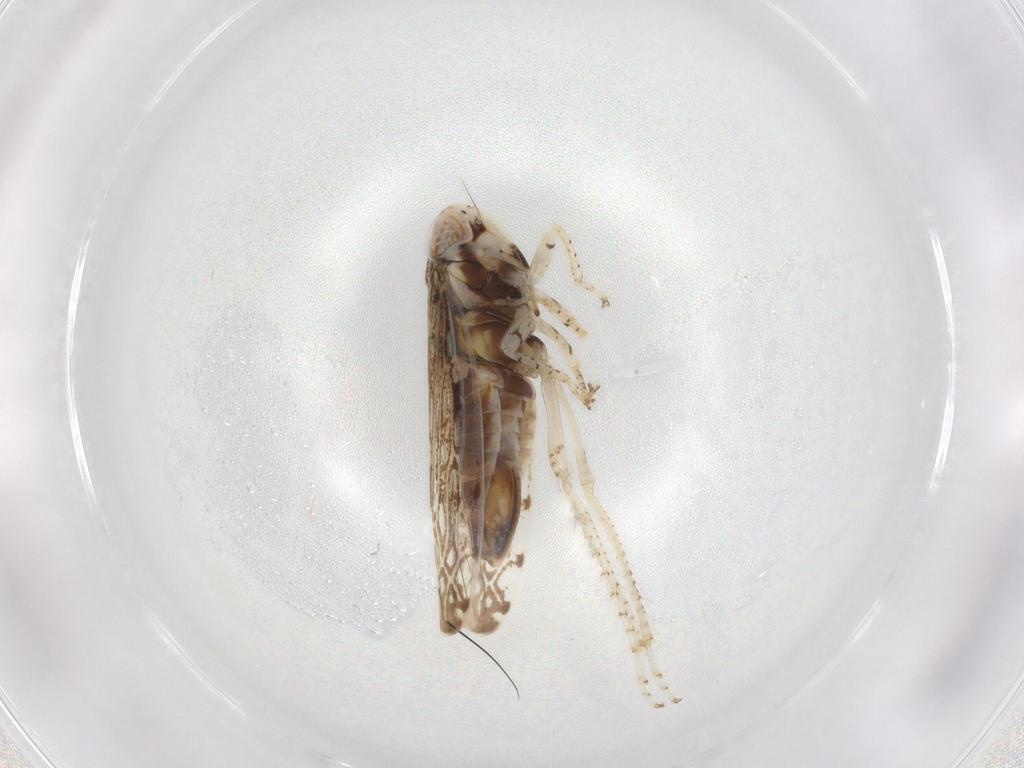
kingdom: Animalia
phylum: Arthropoda
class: Insecta
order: Hemiptera
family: Cicadellidae
